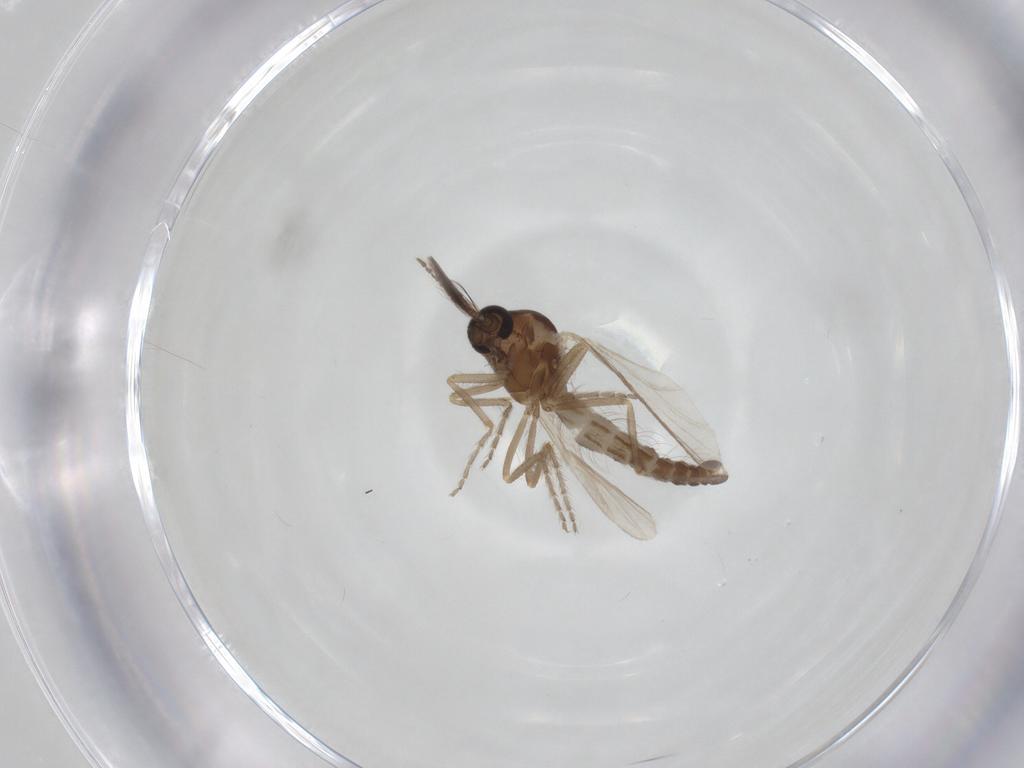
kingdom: Animalia
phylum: Arthropoda
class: Insecta
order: Diptera
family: Ceratopogonidae
